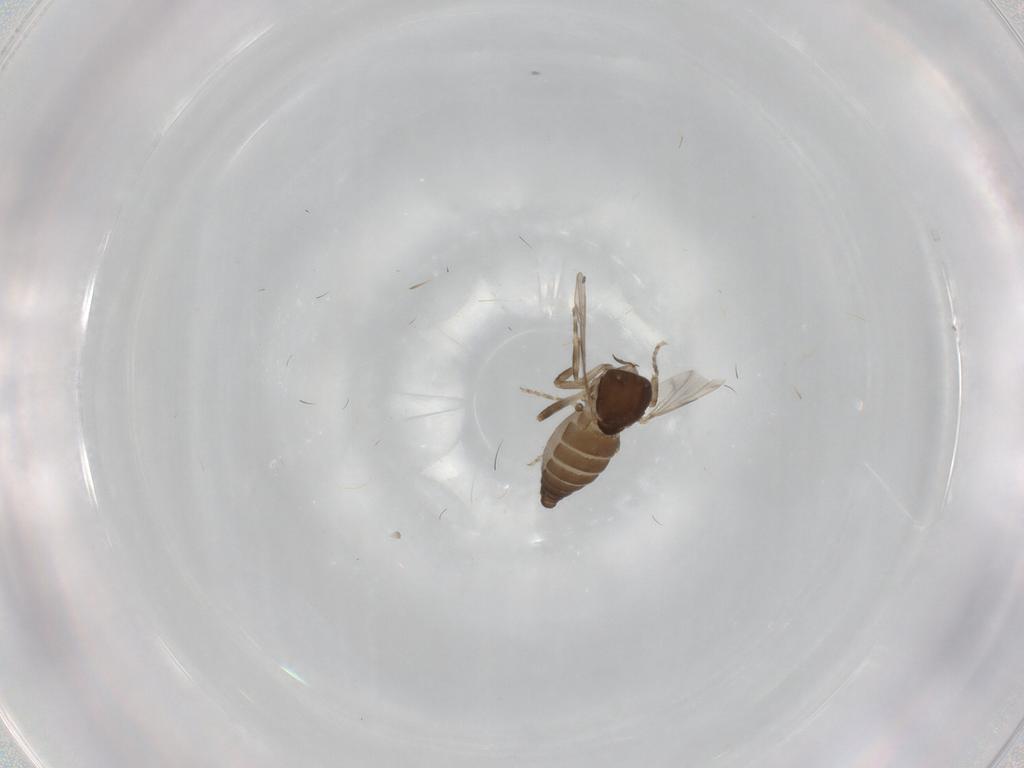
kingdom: Animalia
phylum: Arthropoda
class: Insecta
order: Diptera
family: Ceratopogonidae
